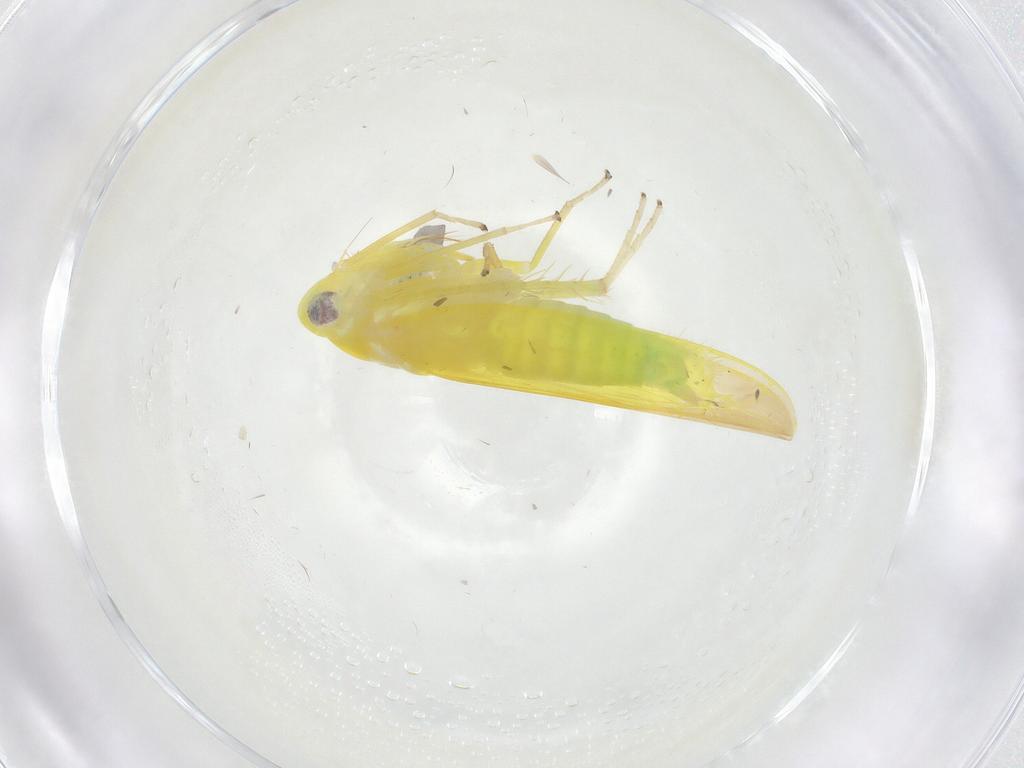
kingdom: Animalia
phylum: Arthropoda
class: Insecta
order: Hemiptera
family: Cicadellidae
